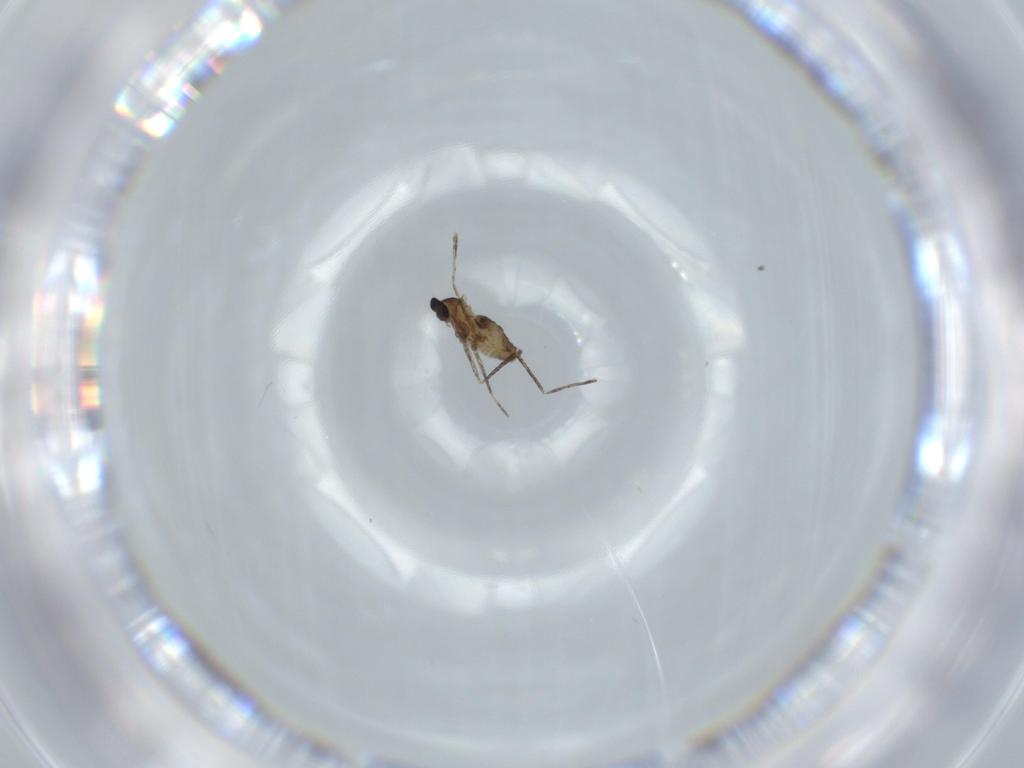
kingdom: Animalia
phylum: Arthropoda
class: Insecta
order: Diptera
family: Cecidomyiidae
